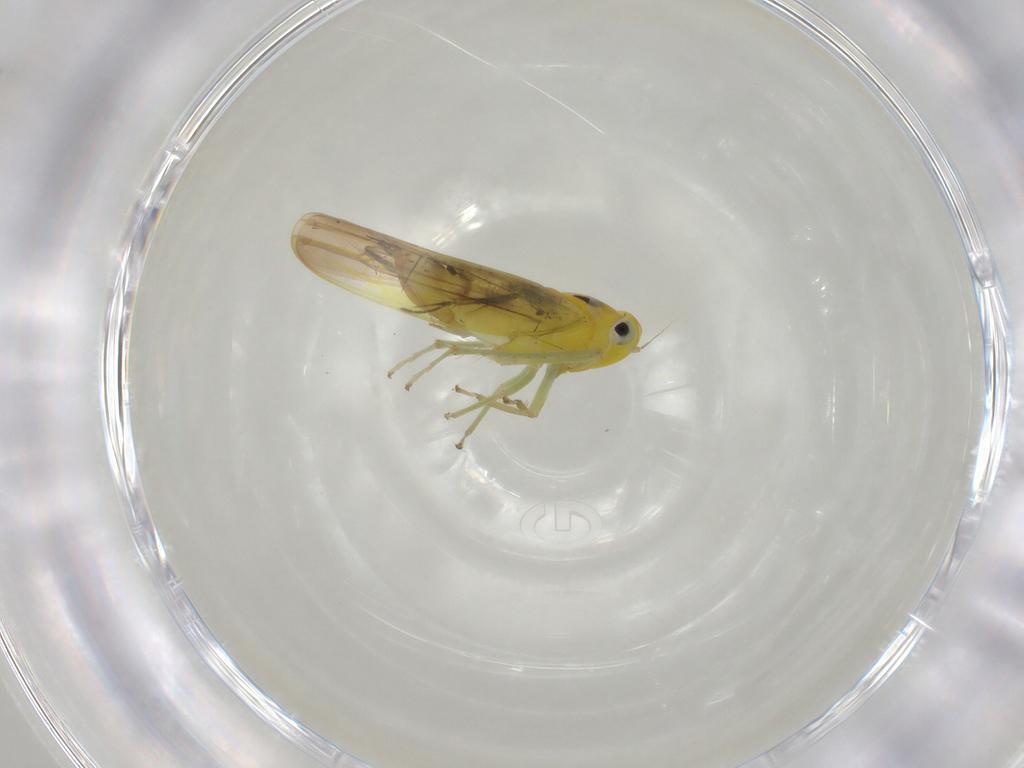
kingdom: Animalia
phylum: Arthropoda
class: Insecta
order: Hemiptera
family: Cicadellidae
